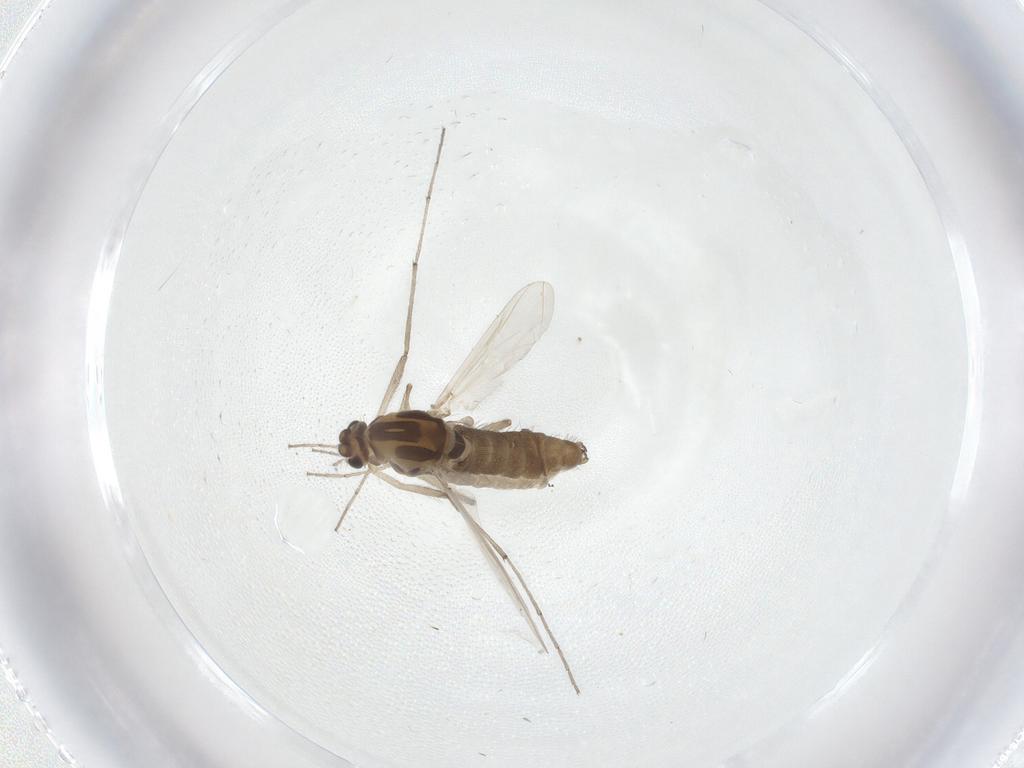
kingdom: Animalia
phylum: Arthropoda
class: Insecta
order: Diptera
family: Chironomidae
